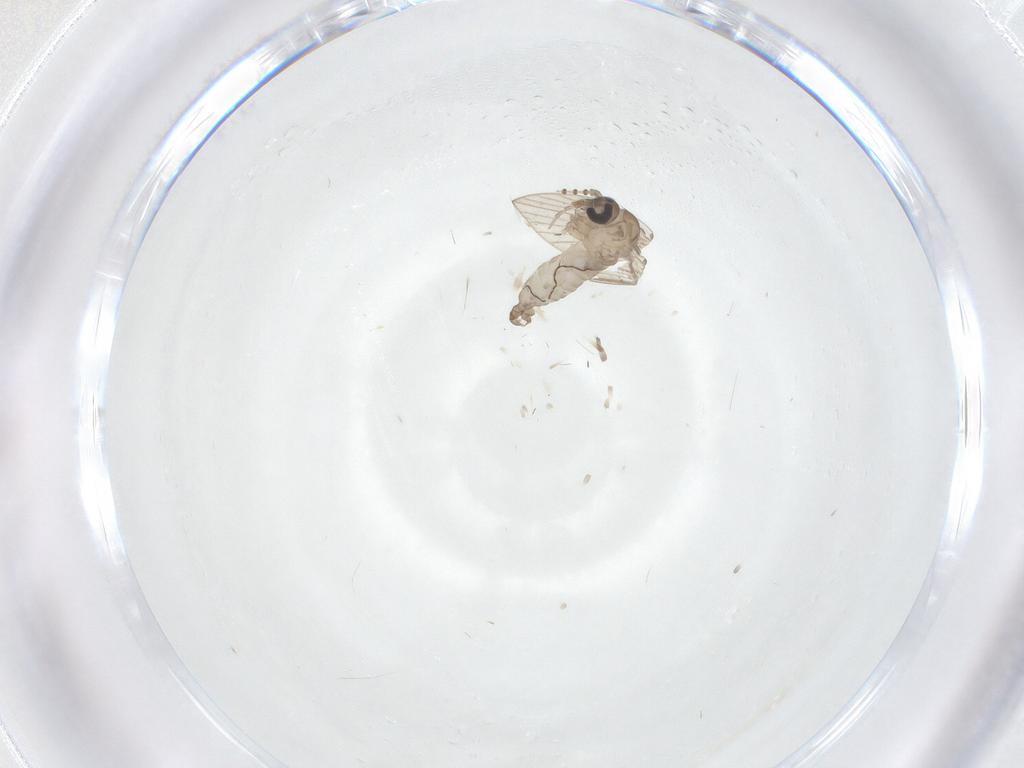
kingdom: Animalia
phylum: Arthropoda
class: Insecta
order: Diptera
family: Psychodidae
